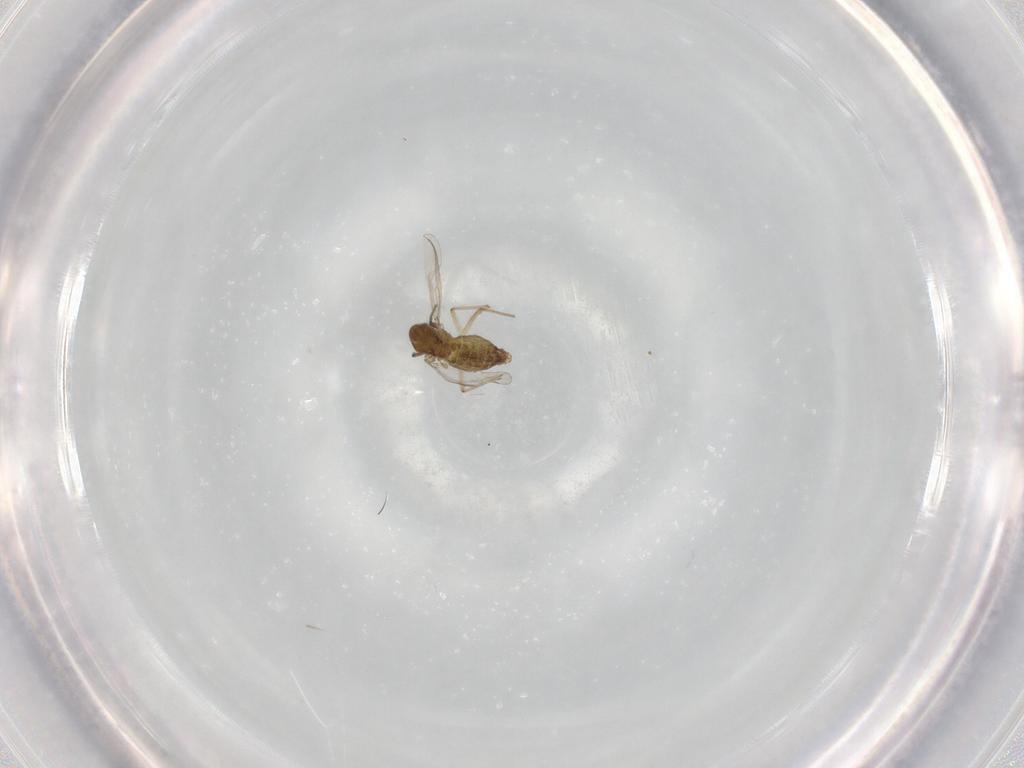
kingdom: Animalia
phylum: Arthropoda
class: Insecta
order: Diptera
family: Chironomidae
